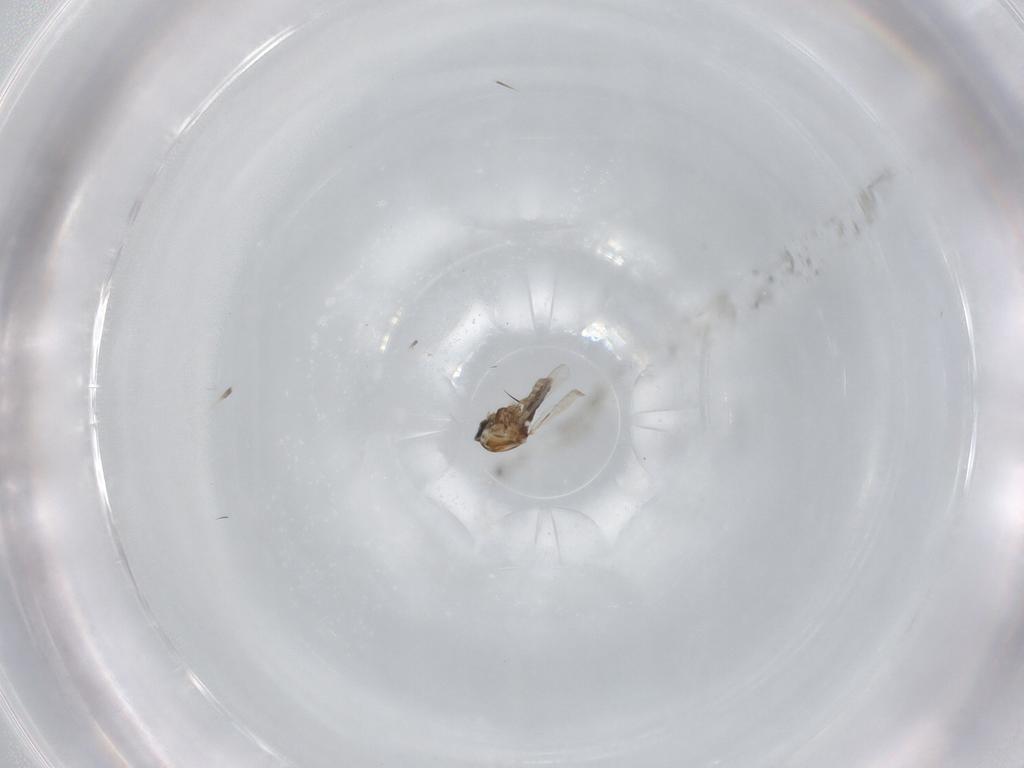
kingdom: Animalia
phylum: Arthropoda
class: Insecta
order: Diptera
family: Ceratopogonidae
